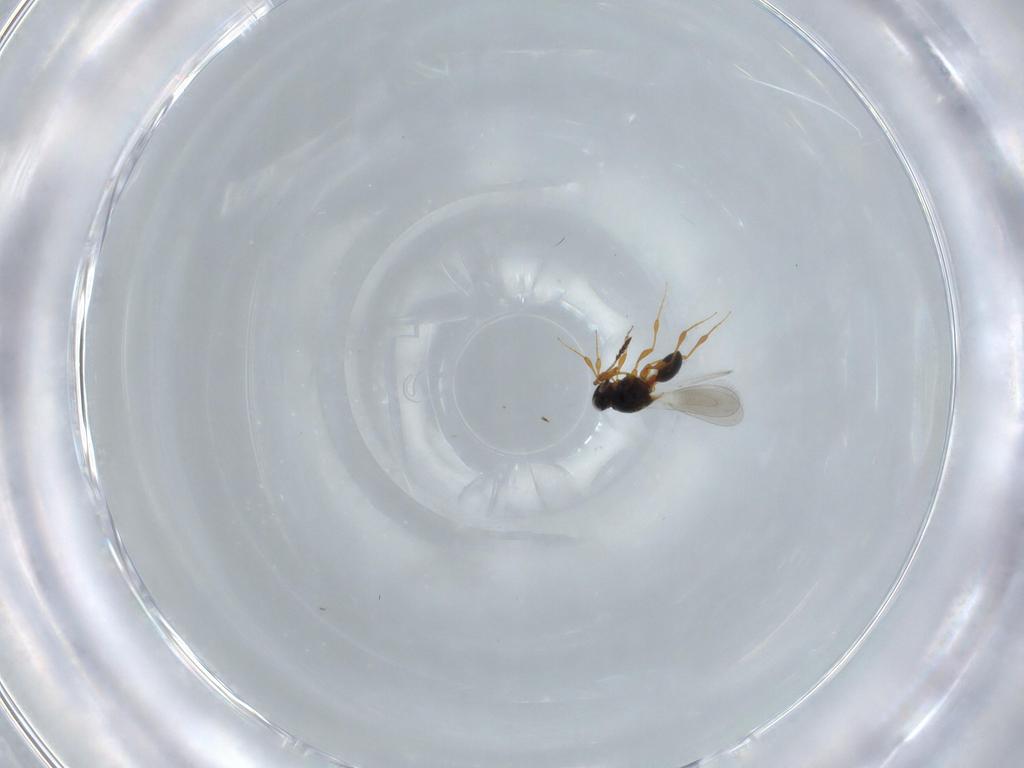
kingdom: Animalia
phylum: Arthropoda
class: Insecta
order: Hymenoptera
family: Platygastridae
